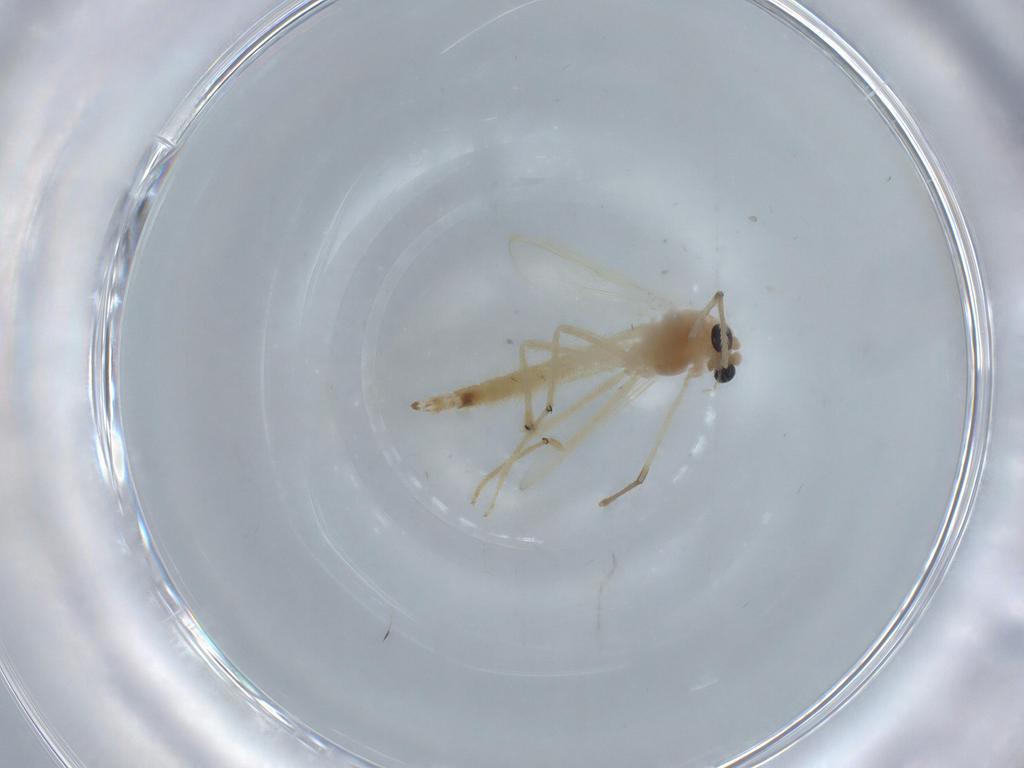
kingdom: Animalia
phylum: Arthropoda
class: Insecta
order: Diptera
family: Chironomidae
